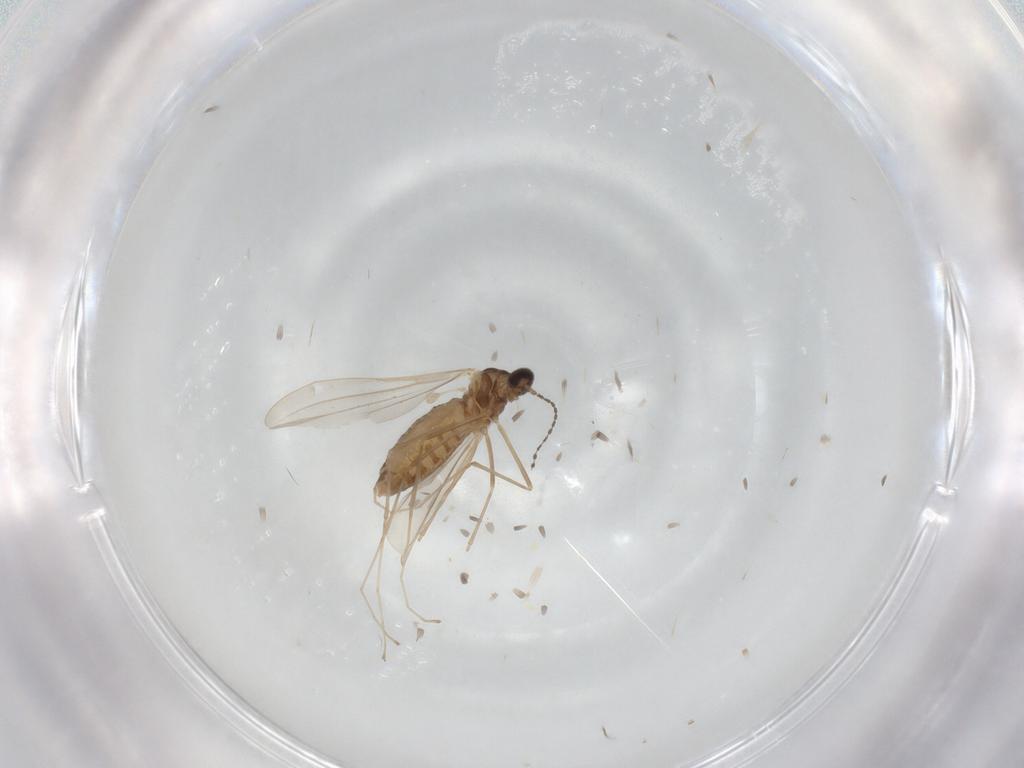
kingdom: Animalia
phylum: Arthropoda
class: Insecta
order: Diptera
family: Cecidomyiidae
